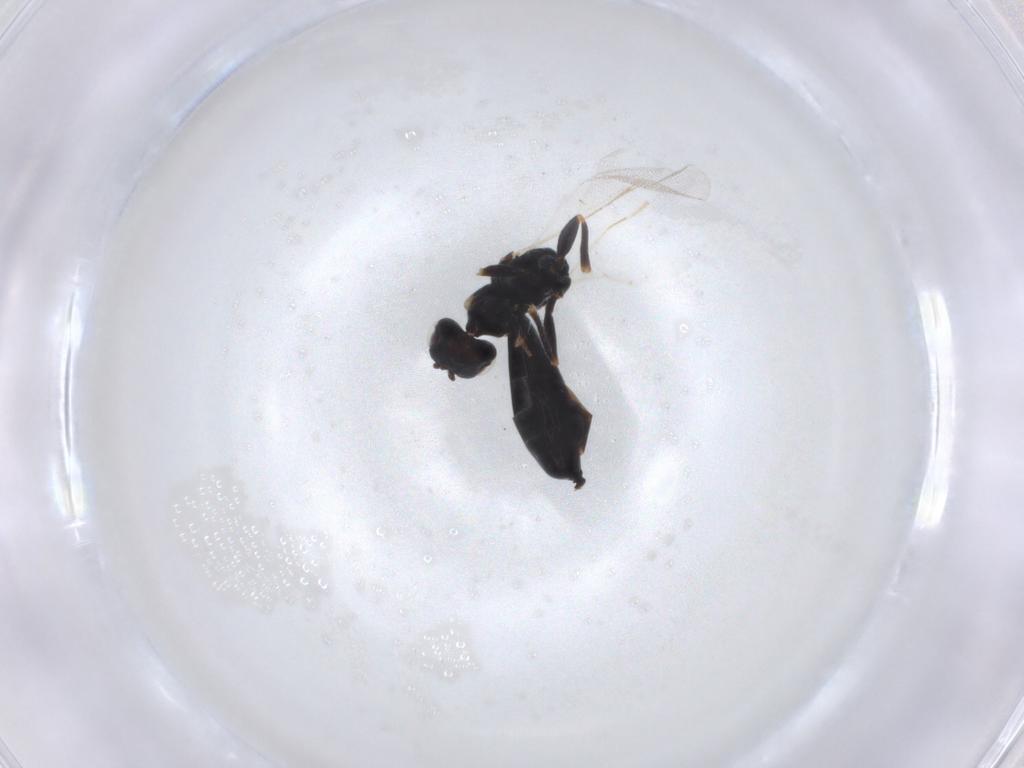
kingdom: Animalia
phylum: Arthropoda
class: Insecta
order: Hymenoptera
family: Eurytomidae
